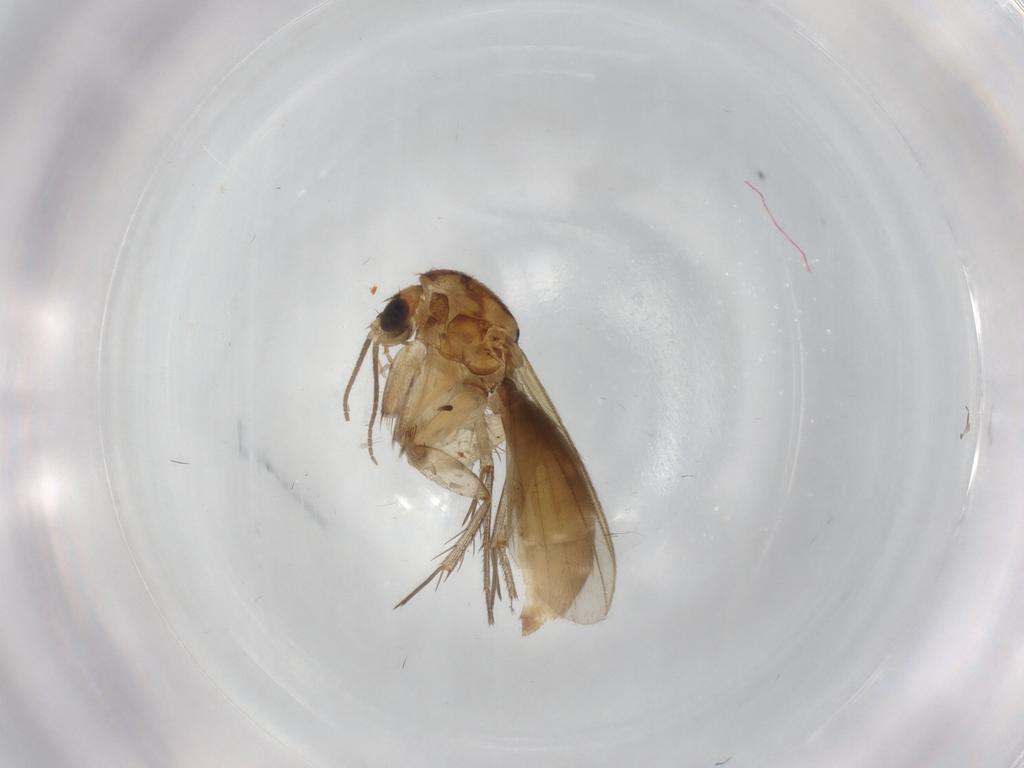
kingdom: Animalia
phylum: Arthropoda
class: Insecta
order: Diptera
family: Mycetophilidae
